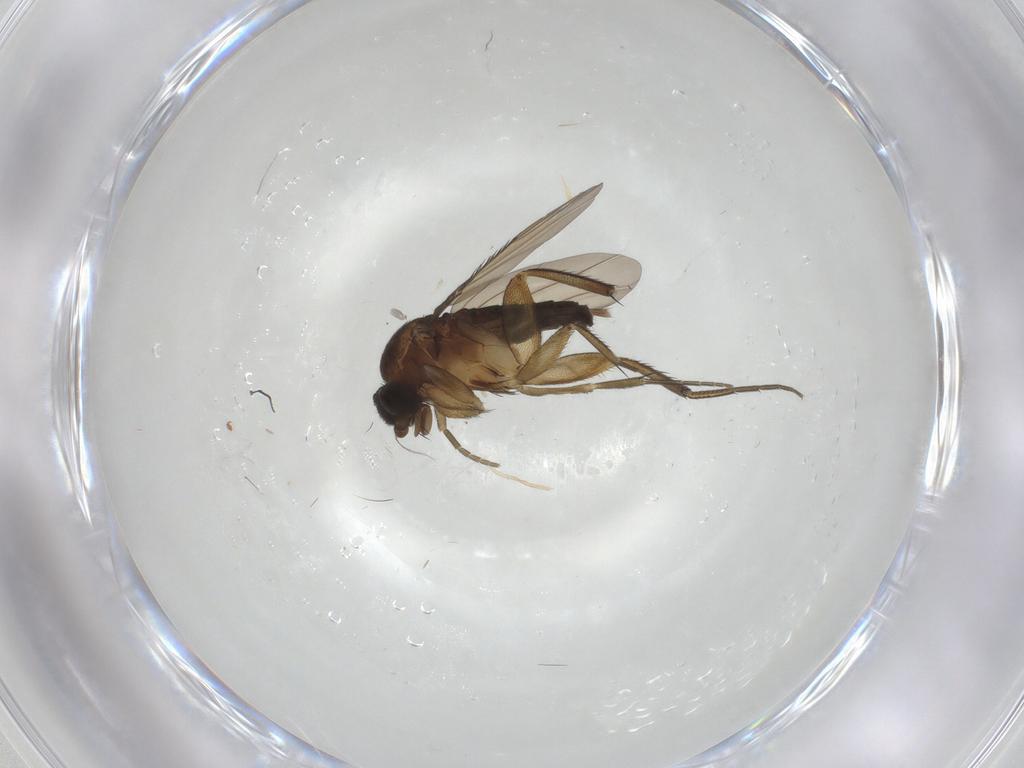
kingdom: Animalia
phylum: Arthropoda
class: Insecta
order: Diptera
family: Phoridae
